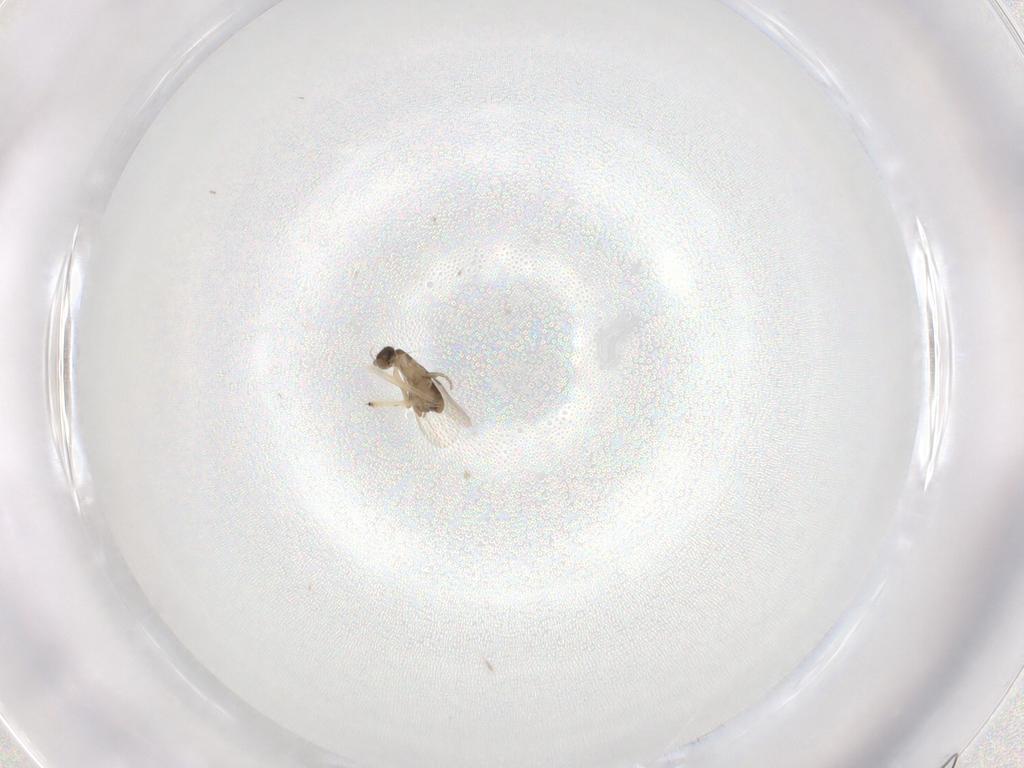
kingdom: Animalia
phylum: Arthropoda
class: Insecta
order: Diptera
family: Phoridae
